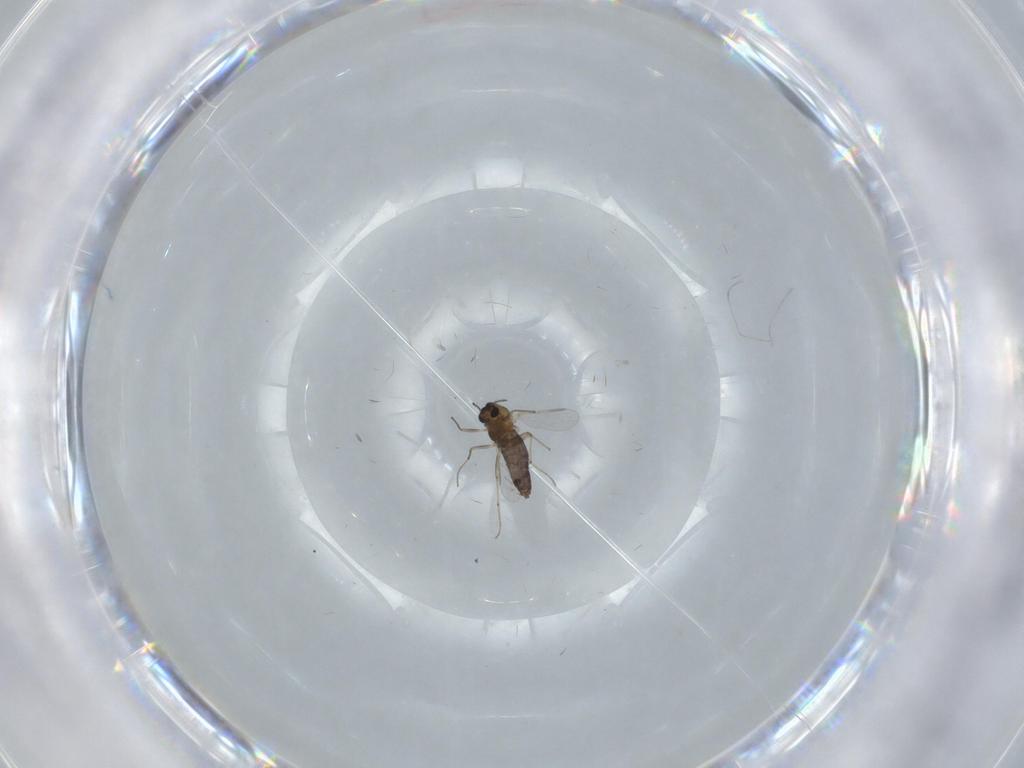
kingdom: Animalia
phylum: Arthropoda
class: Insecta
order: Diptera
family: Chironomidae
